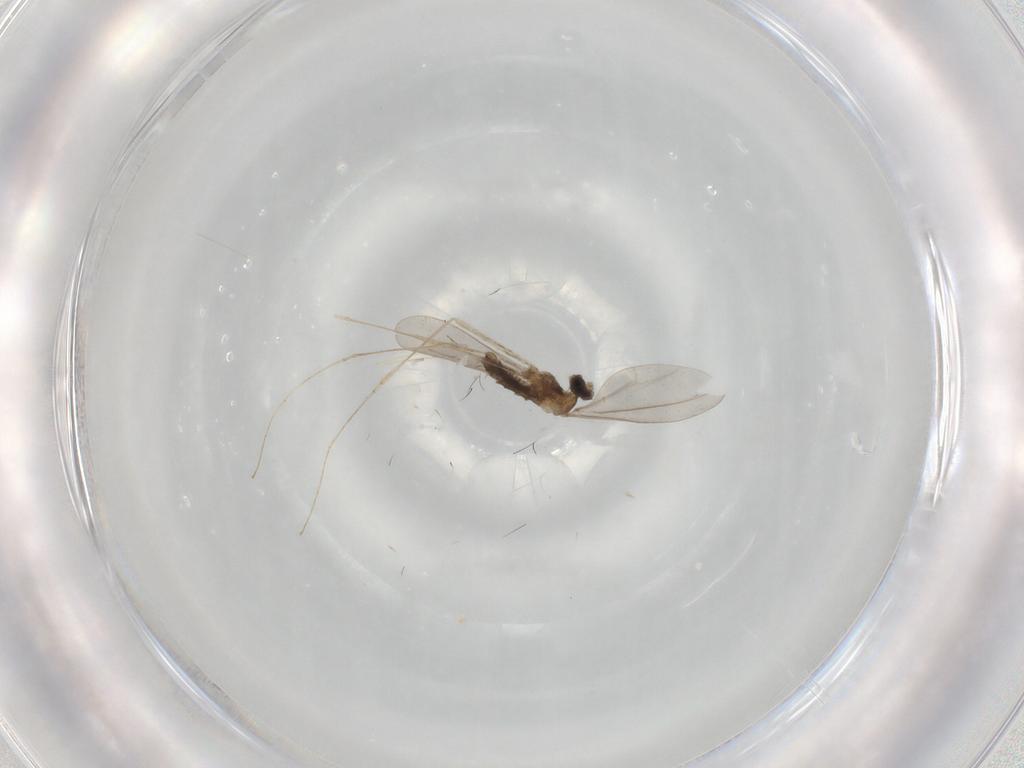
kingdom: Animalia
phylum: Arthropoda
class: Insecta
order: Diptera
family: Cecidomyiidae
